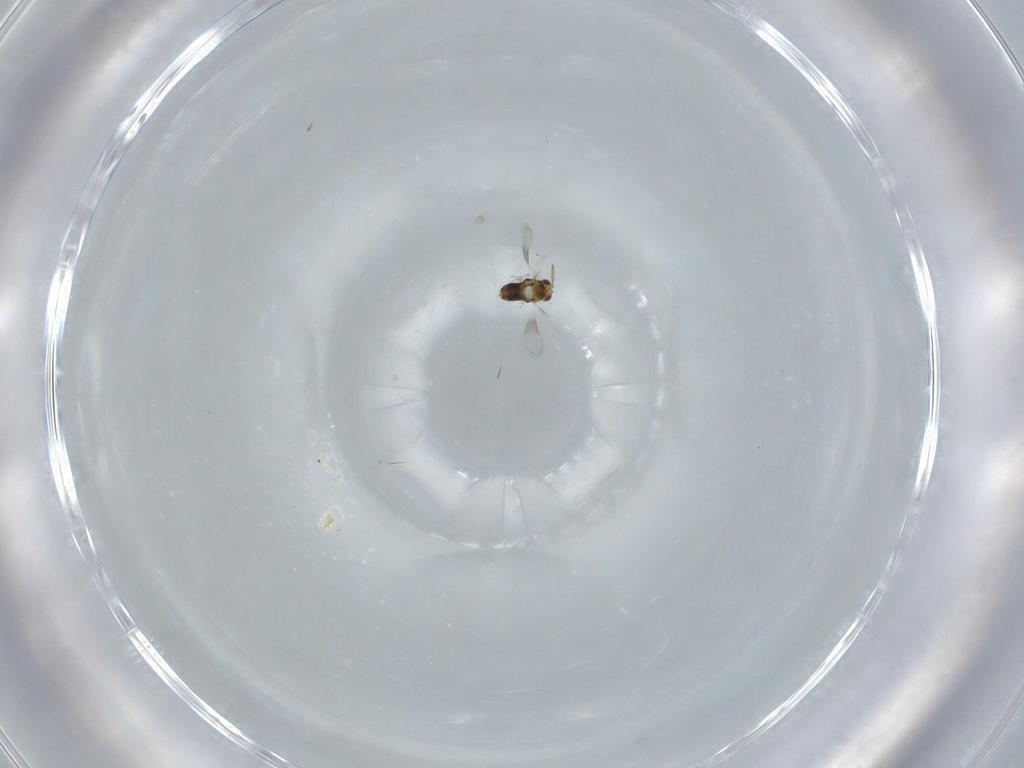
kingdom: Animalia
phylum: Arthropoda
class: Insecta
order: Hymenoptera
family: Aphelinidae
